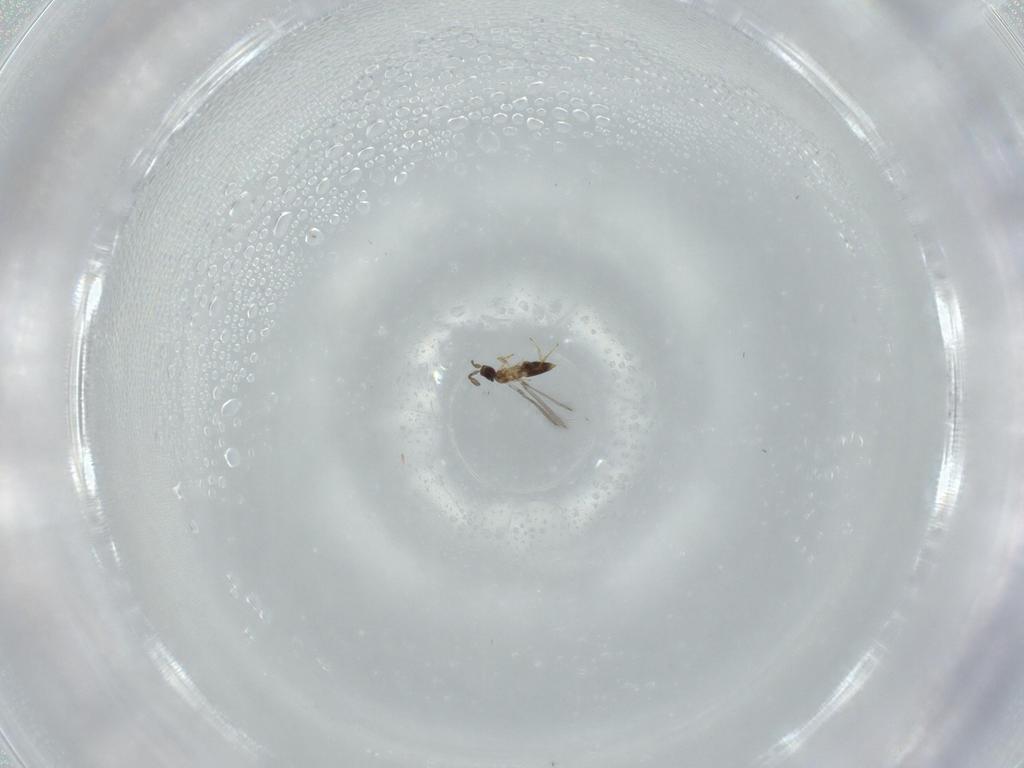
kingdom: Animalia
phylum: Arthropoda
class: Insecta
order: Hymenoptera
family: Mymaridae
